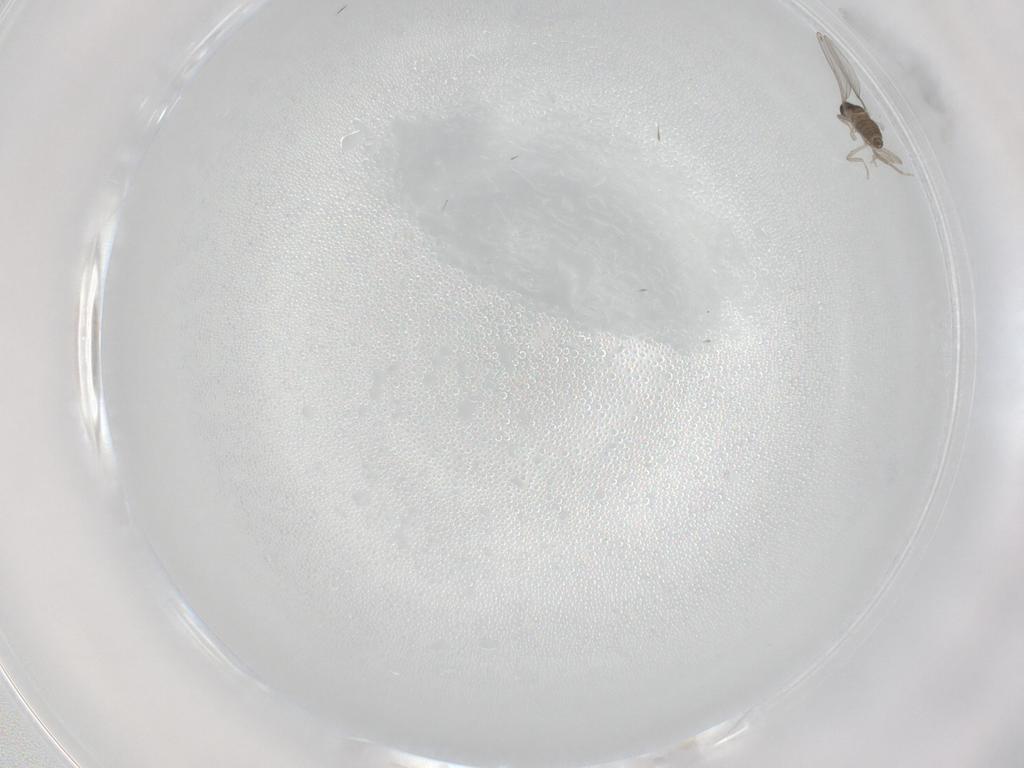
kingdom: Animalia
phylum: Arthropoda
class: Insecta
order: Diptera
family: Cecidomyiidae
